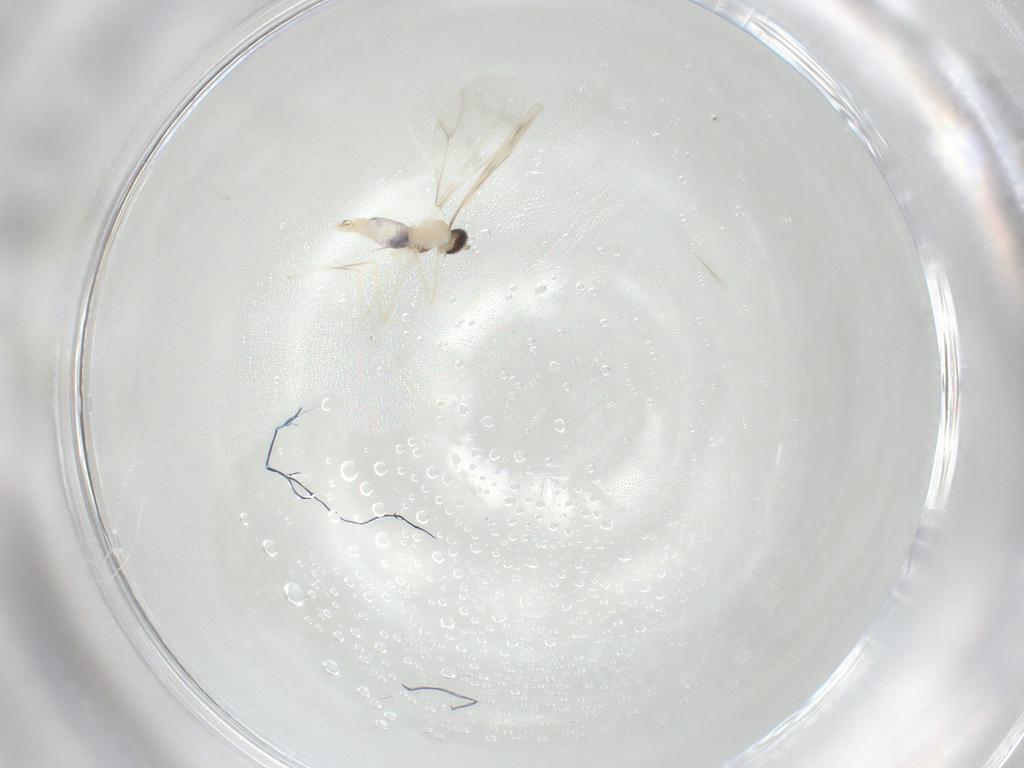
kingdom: Animalia
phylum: Arthropoda
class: Insecta
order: Diptera
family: Cecidomyiidae
